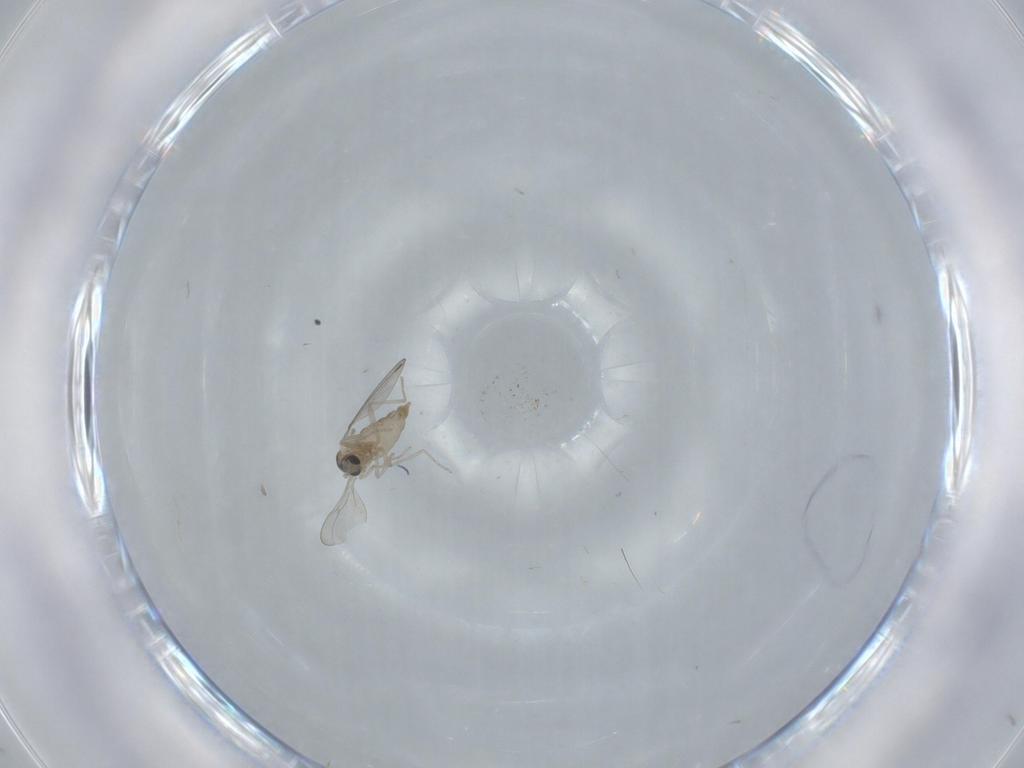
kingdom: Animalia
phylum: Arthropoda
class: Insecta
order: Diptera
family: Cecidomyiidae
